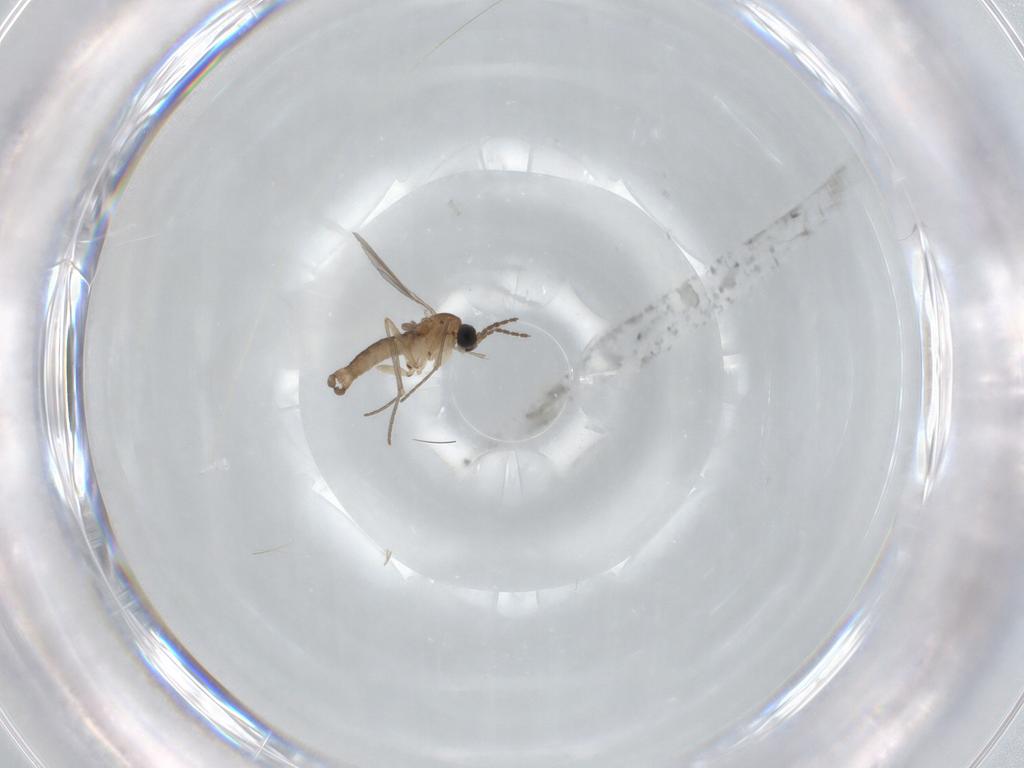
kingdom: Animalia
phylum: Arthropoda
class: Insecta
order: Diptera
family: Sciaridae
